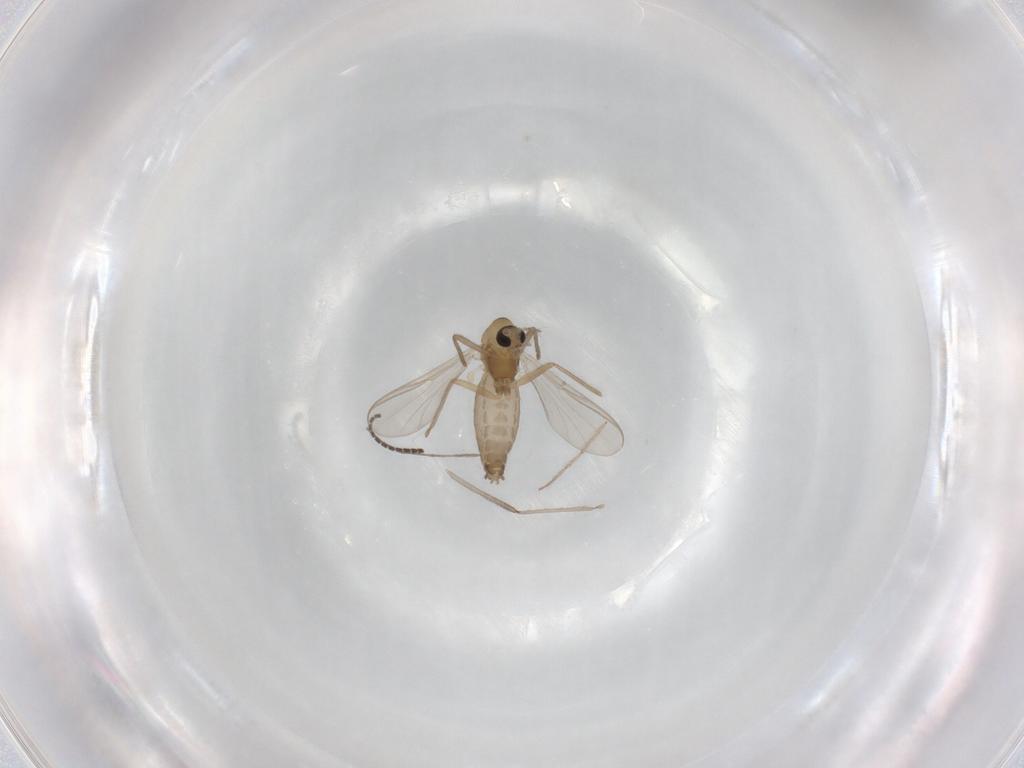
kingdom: Animalia
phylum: Arthropoda
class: Insecta
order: Diptera
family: Chironomidae
